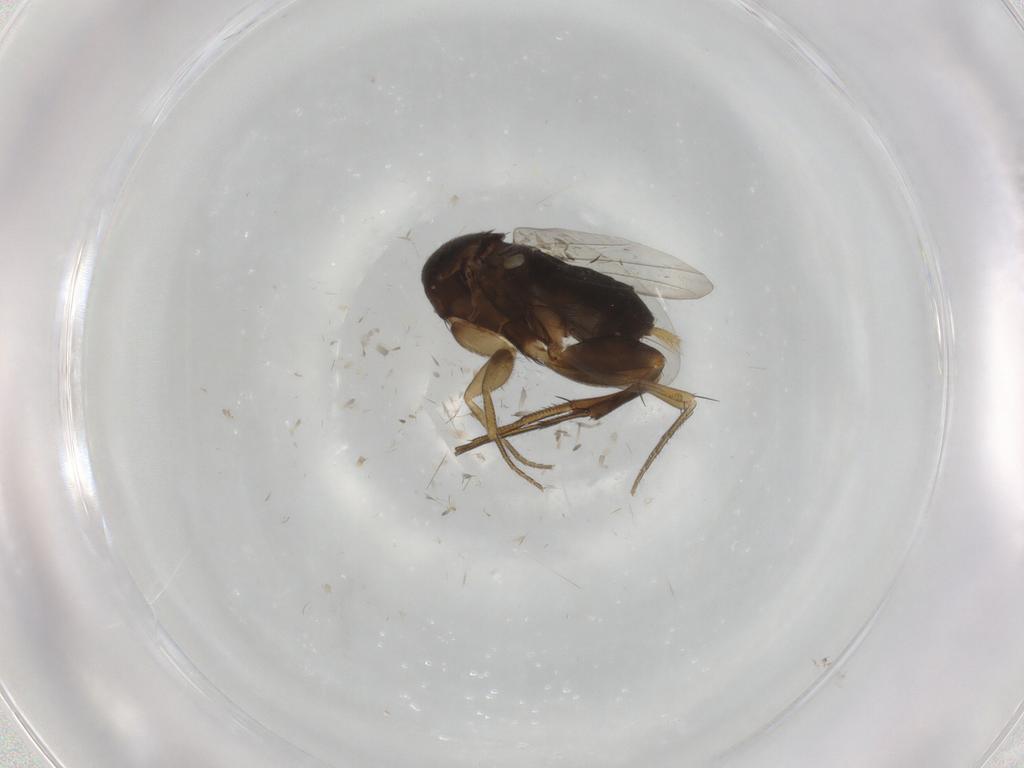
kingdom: Animalia
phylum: Arthropoda
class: Insecta
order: Diptera
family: Phoridae
